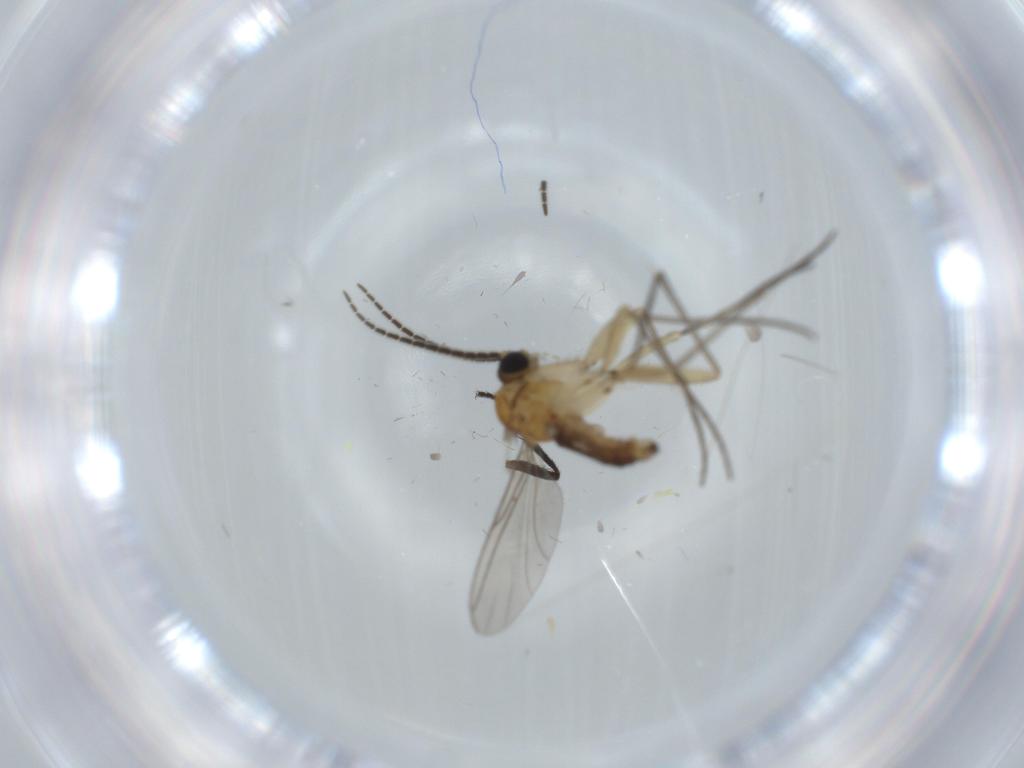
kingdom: Animalia
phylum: Arthropoda
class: Insecta
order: Diptera
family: Sciaridae
